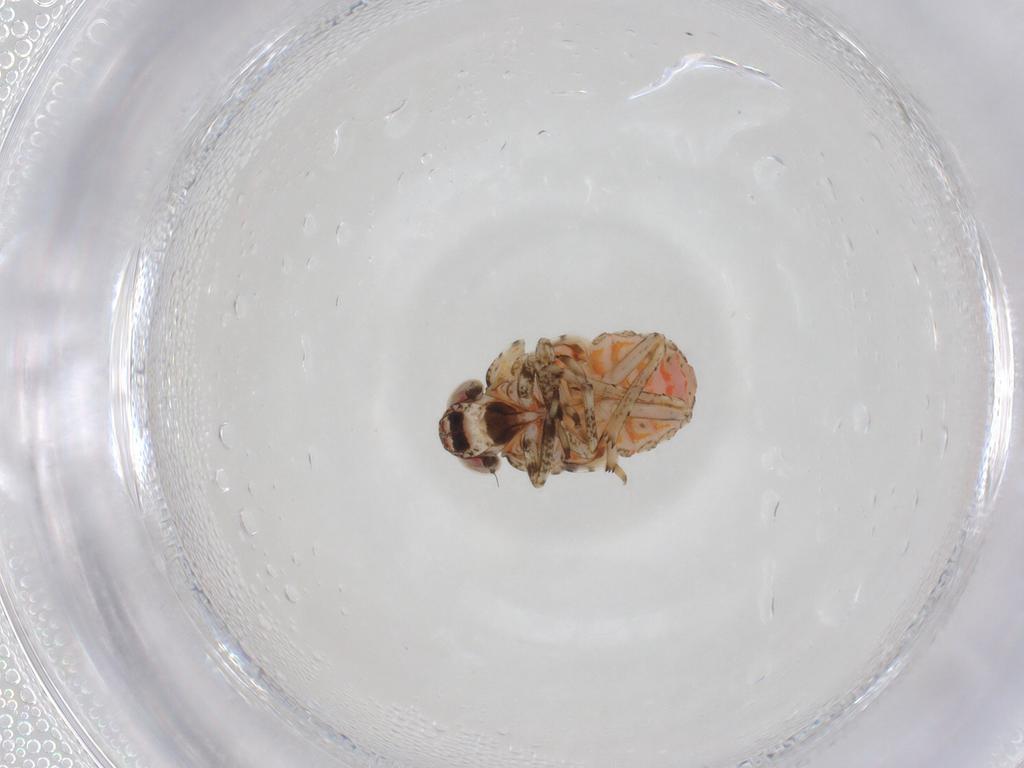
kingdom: Animalia
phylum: Arthropoda
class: Insecta
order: Hemiptera
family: Issidae
